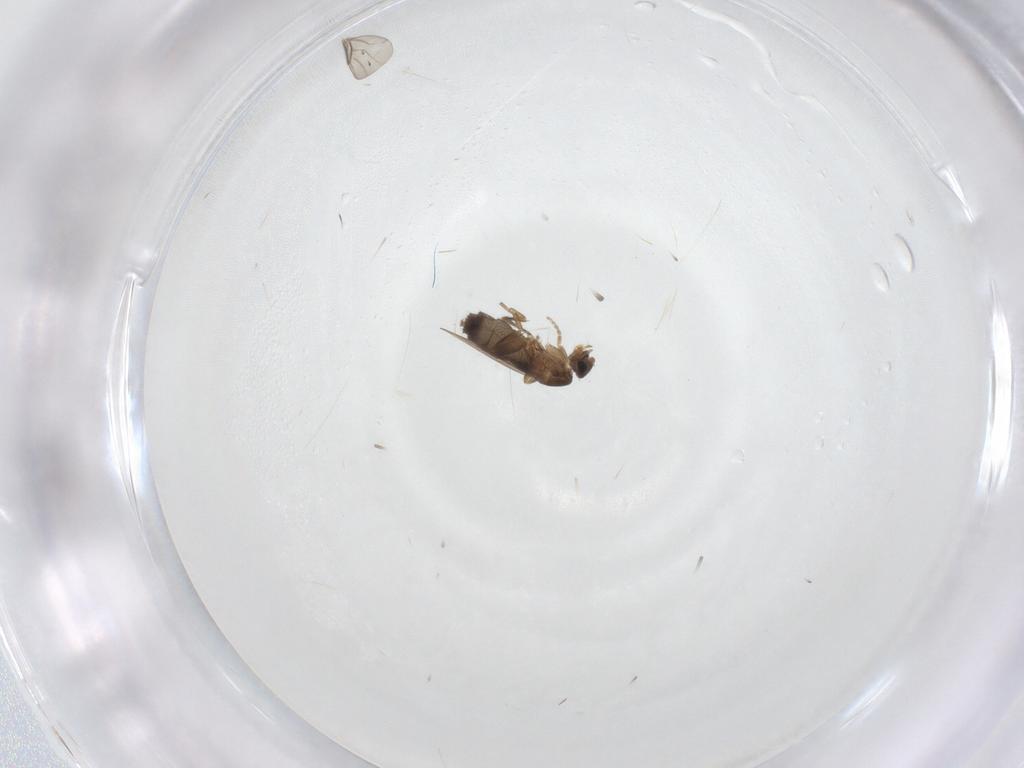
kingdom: Animalia
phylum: Arthropoda
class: Insecta
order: Diptera
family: Phoridae
